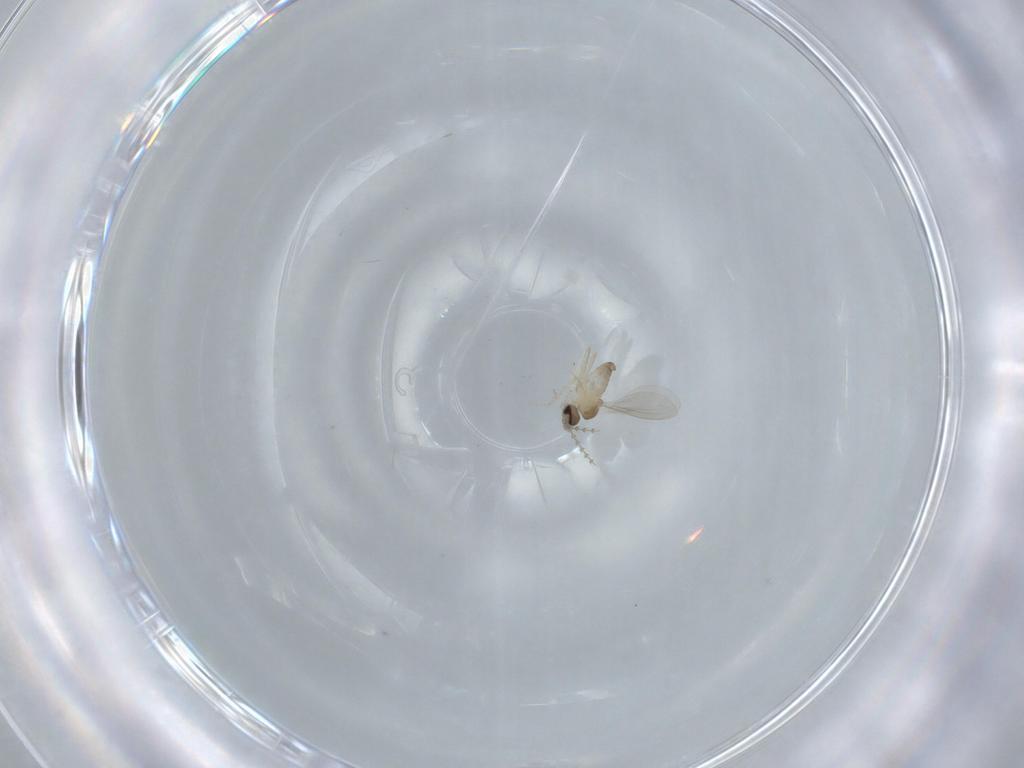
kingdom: Animalia
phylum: Arthropoda
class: Insecta
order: Diptera
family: Cecidomyiidae
